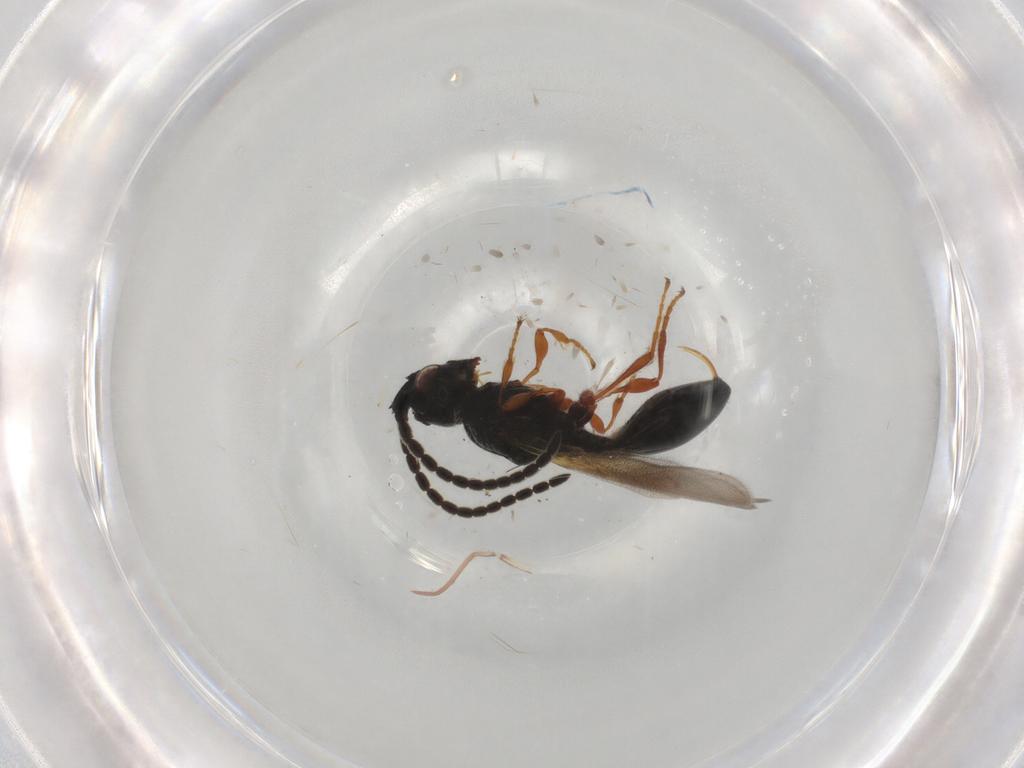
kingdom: Animalia
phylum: Arthropoda
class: Insecta
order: Hymenoptera
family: Diapriidae
